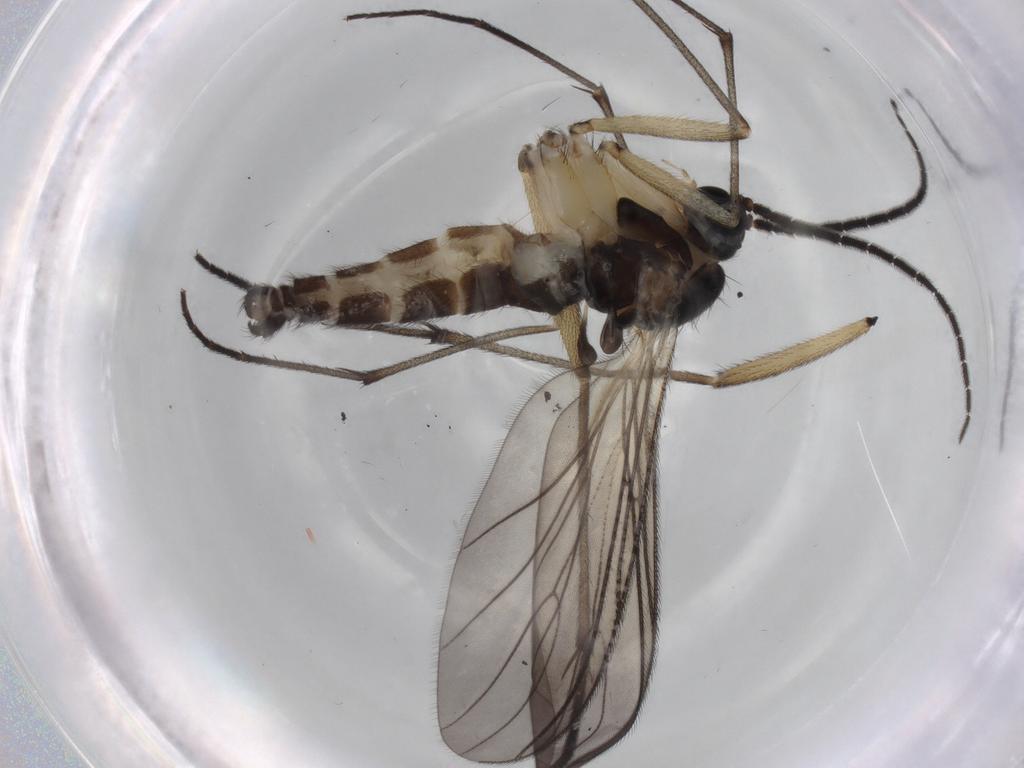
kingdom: Animalia
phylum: Arthropoda
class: Insecta
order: Diptera
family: Sciaridae
